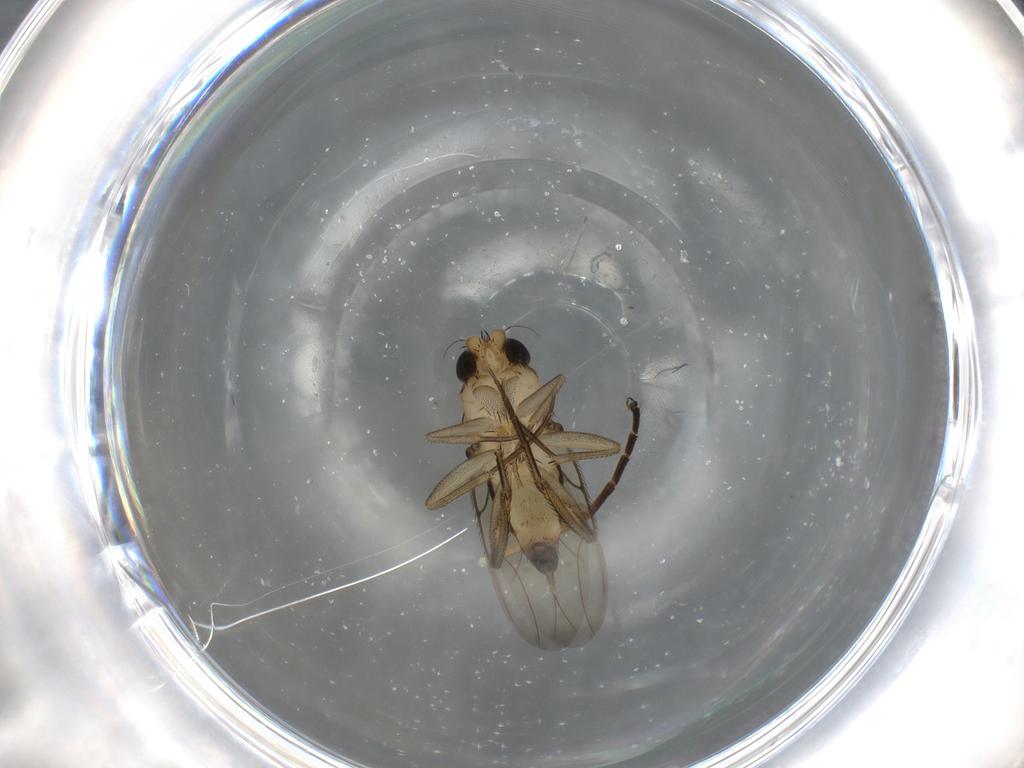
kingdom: Animalia
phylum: Arthropoda
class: Insecta
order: Diptera
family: Bombyliidae
